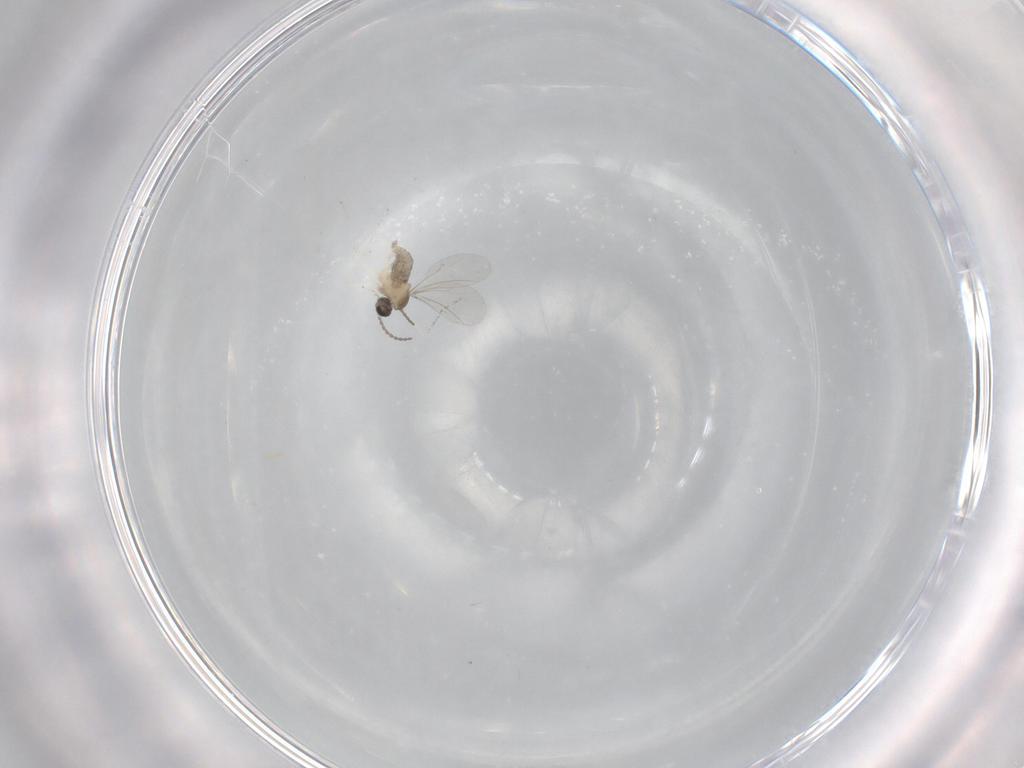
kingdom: Animalia
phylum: Arthropoda
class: Insecta
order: Diptera
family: Cecidomyiidae
